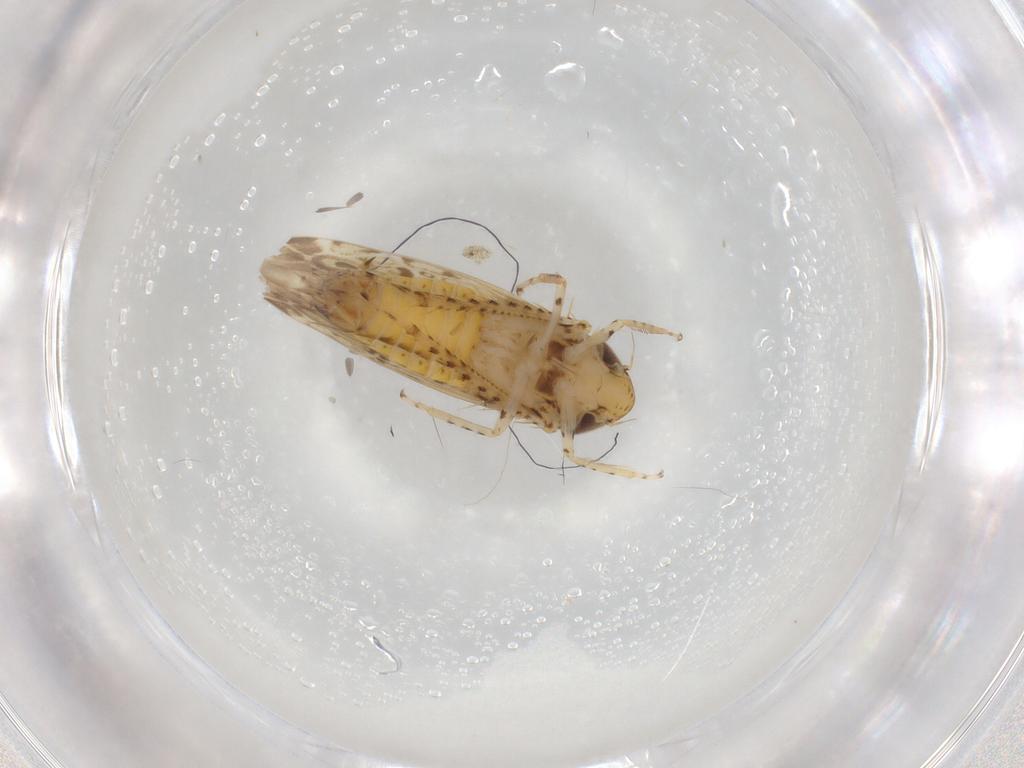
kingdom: Animalia
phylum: Arthropoda
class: Insecta
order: Hemiptera
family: Cicadellidae
